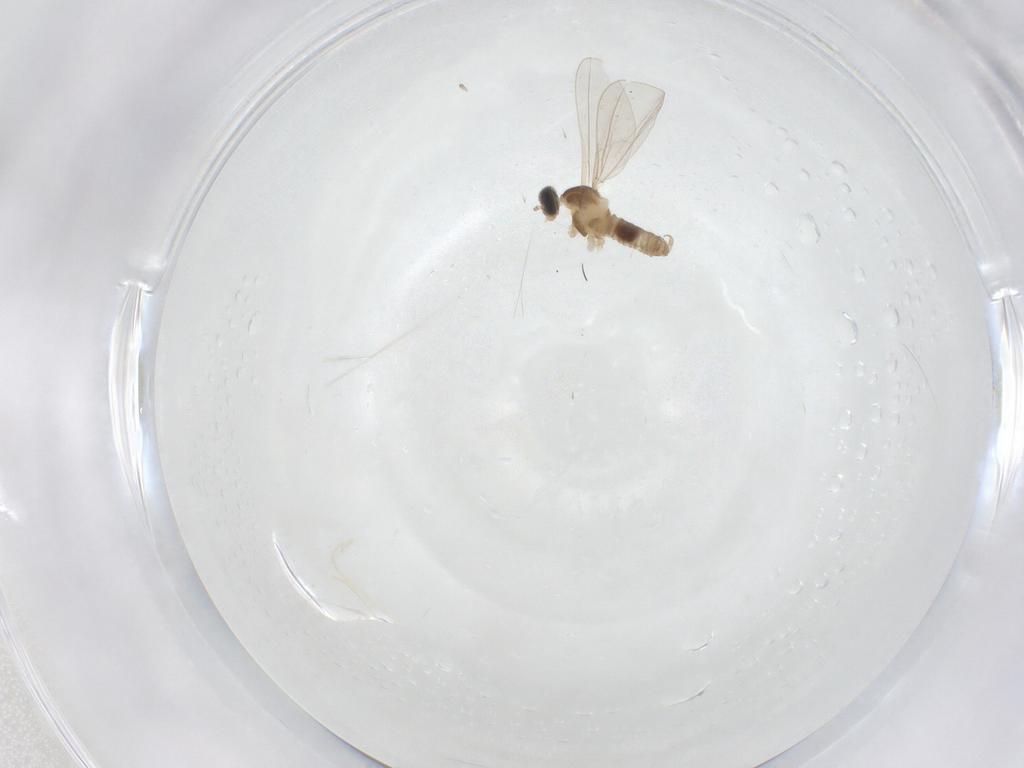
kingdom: Animalia
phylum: Arthropoda
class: Insecta
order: Diptera
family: Cecidomyiidae
